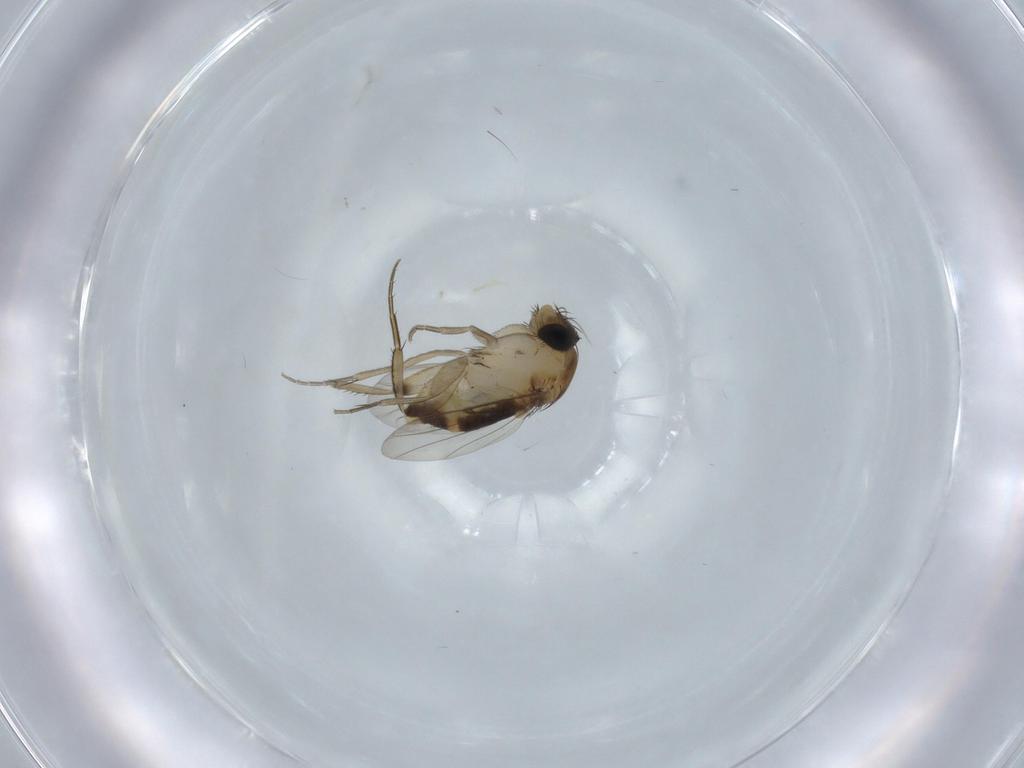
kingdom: Animalia
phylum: Arthropoda
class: Insecta
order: Diptera
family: Cecidomyiidae
